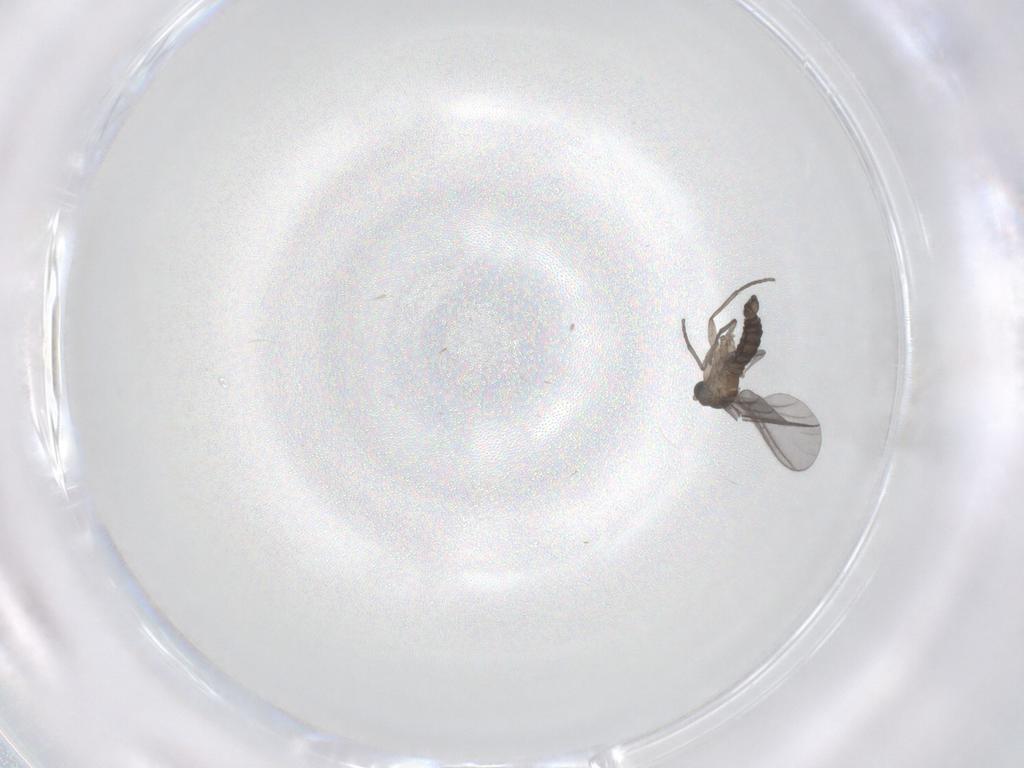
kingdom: Animalia
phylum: Arthropoda
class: Insecta
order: Diptera
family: Sciaridae
